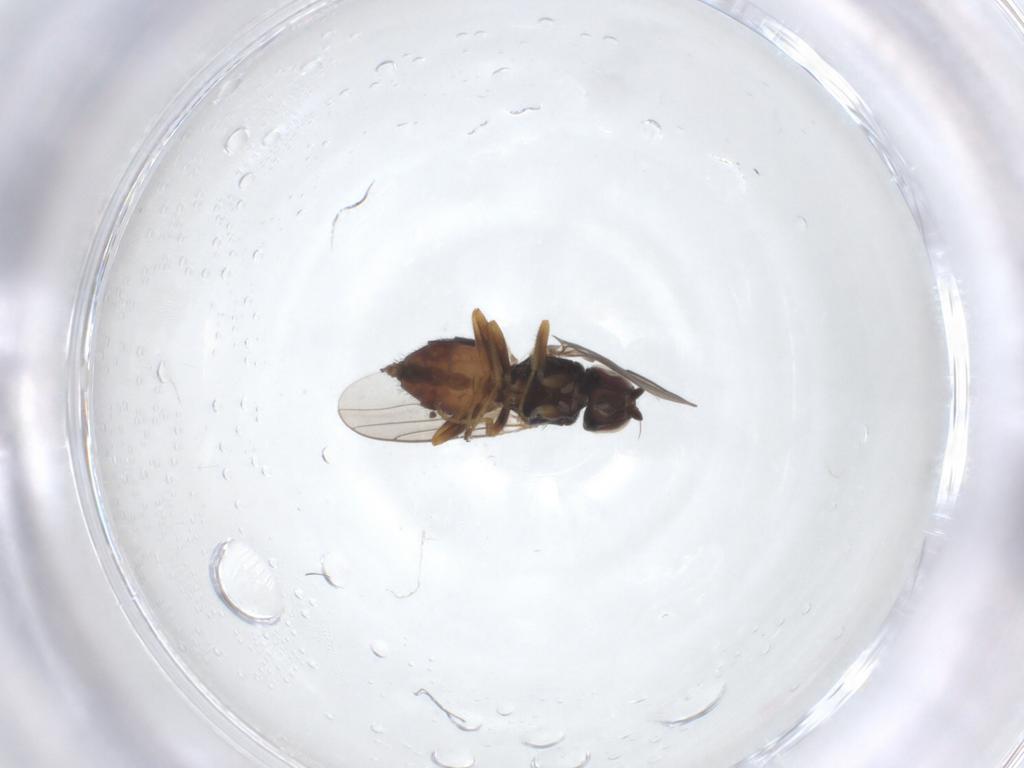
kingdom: Animalia
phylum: Arthropoda
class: Insecta
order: Diptera
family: Chloropidae
